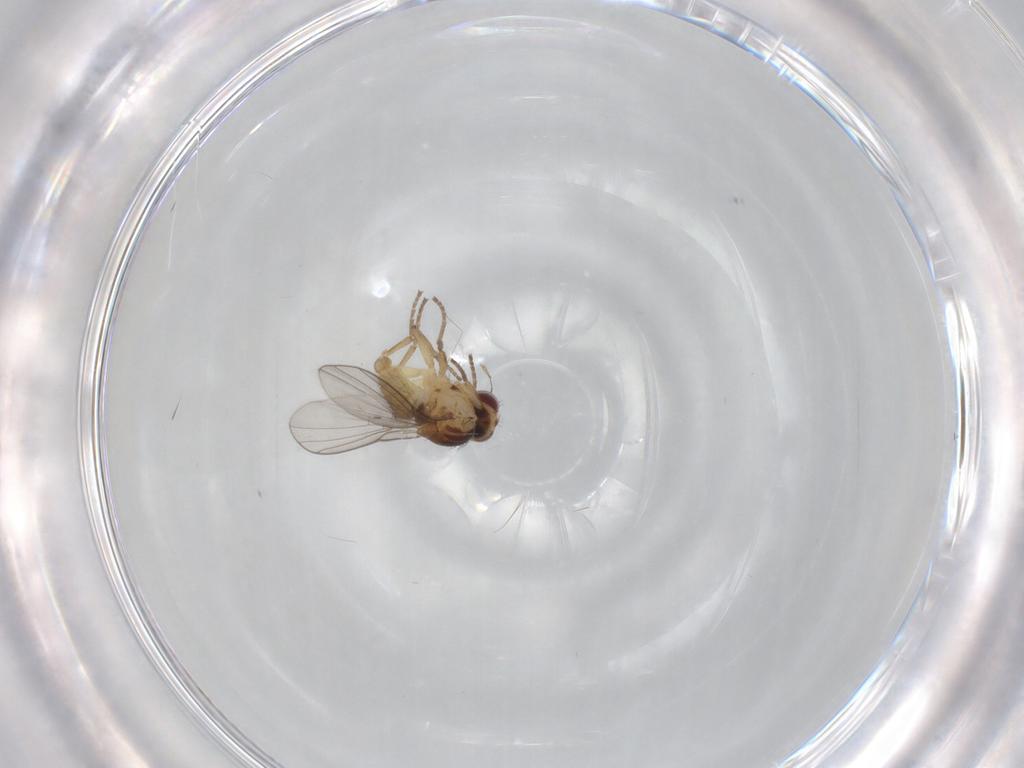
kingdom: Animalia
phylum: Arthropoda
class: Insecta
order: Diptera
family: Agromyzidae
